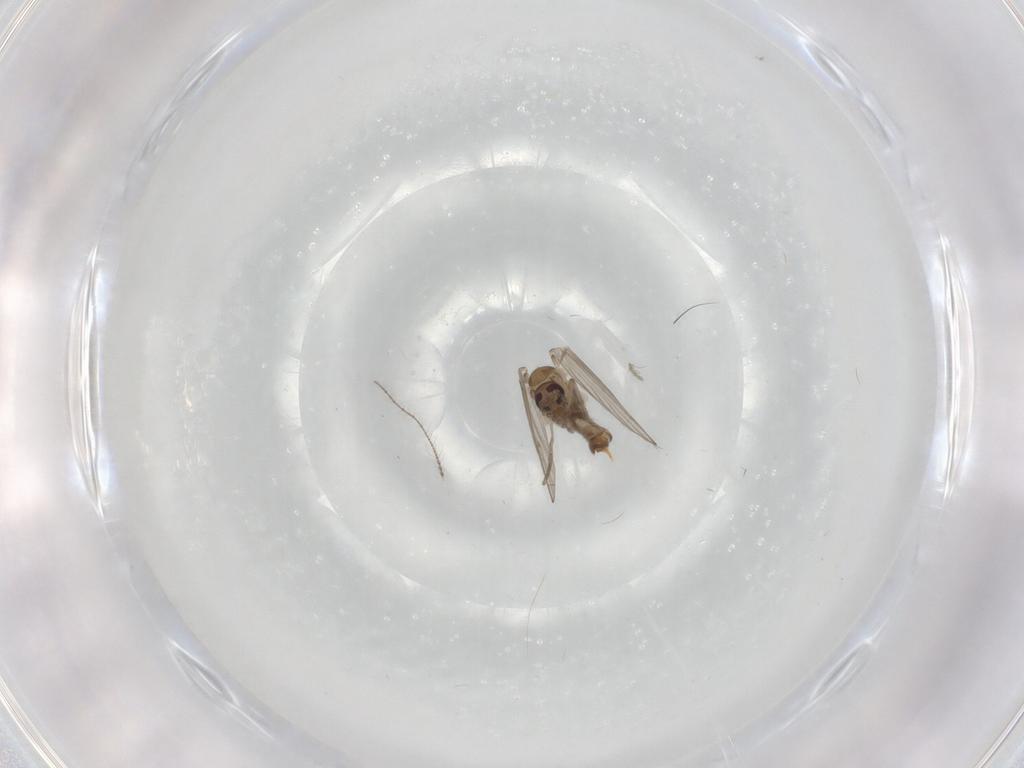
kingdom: Animalia
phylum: Arthropoda
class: Insecta
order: Diptera
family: Psychodidae
